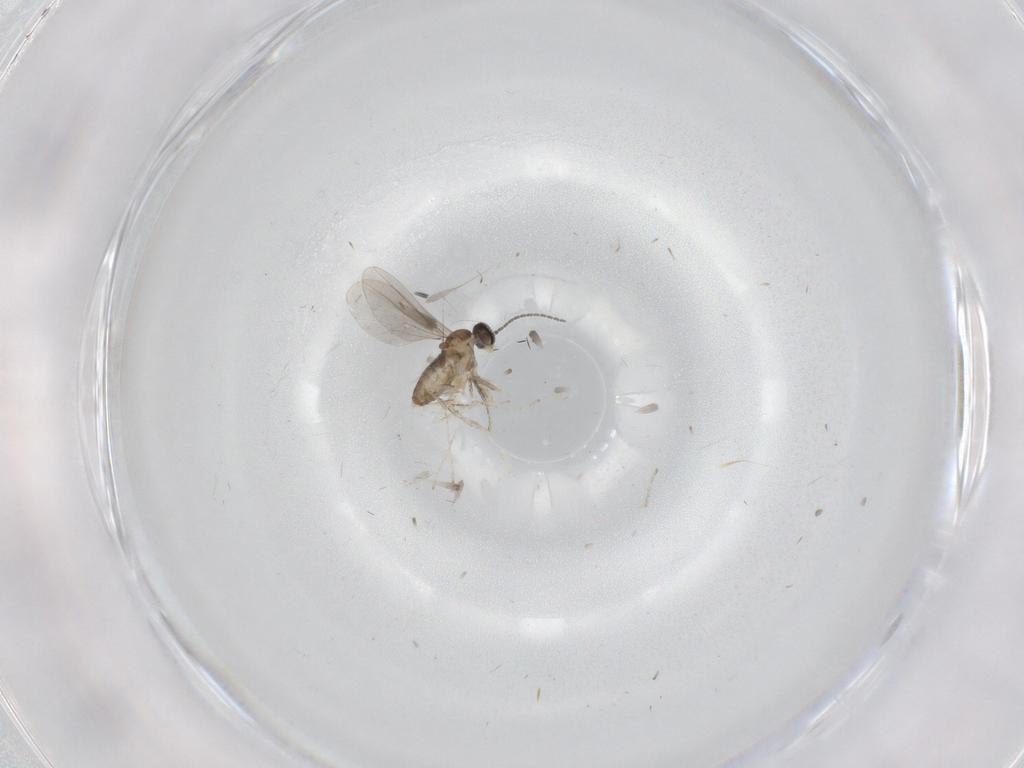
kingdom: Animalia
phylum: Arthropoda
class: Insecta
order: Diptera
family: Cecidomyiidae
